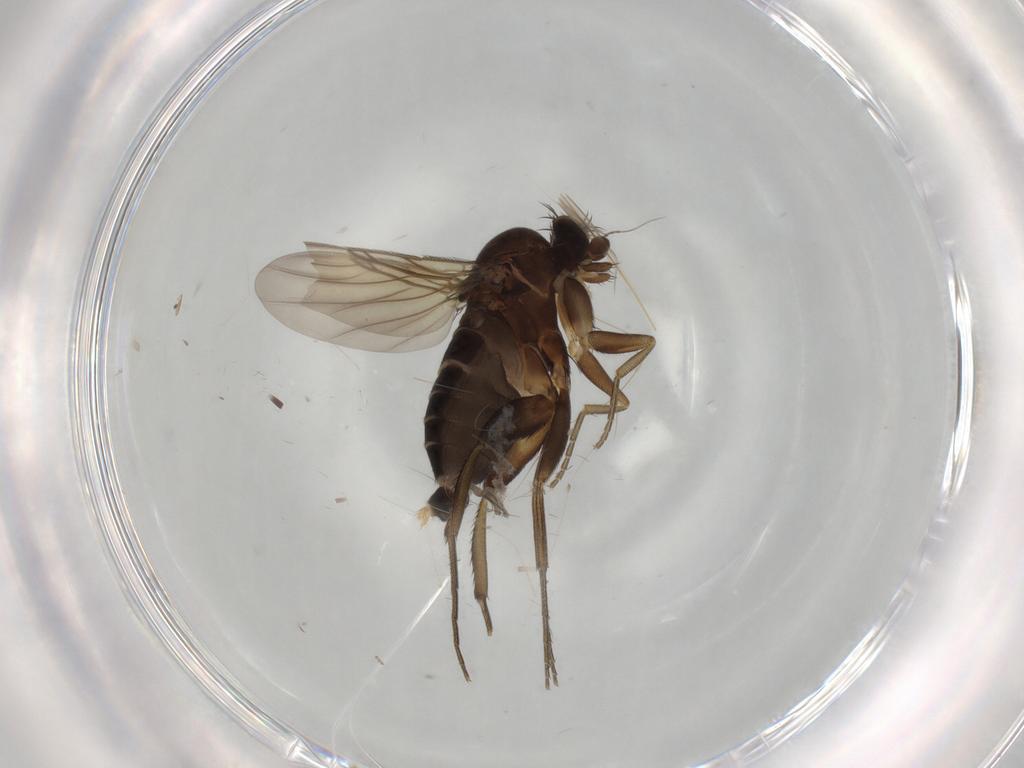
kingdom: Animalia
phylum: Arthropoda
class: Insecta
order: Diptera
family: Phoridae
